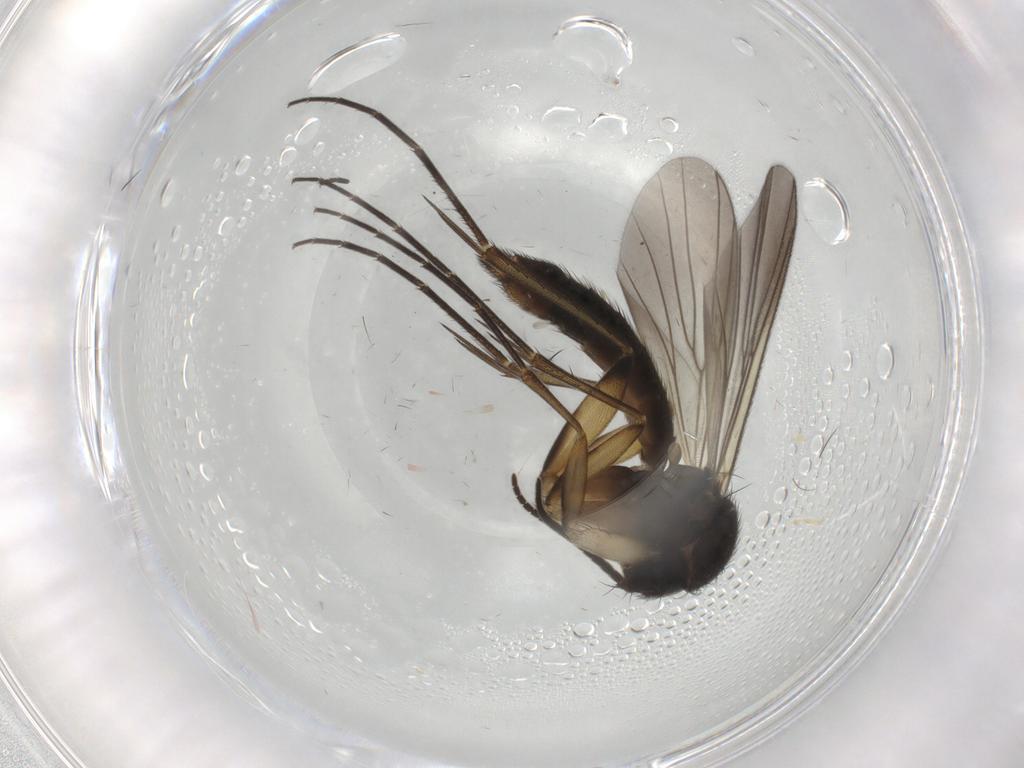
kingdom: Animalia
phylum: Arthropoda
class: Insecta
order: Diptera
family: Mycetophilidae
